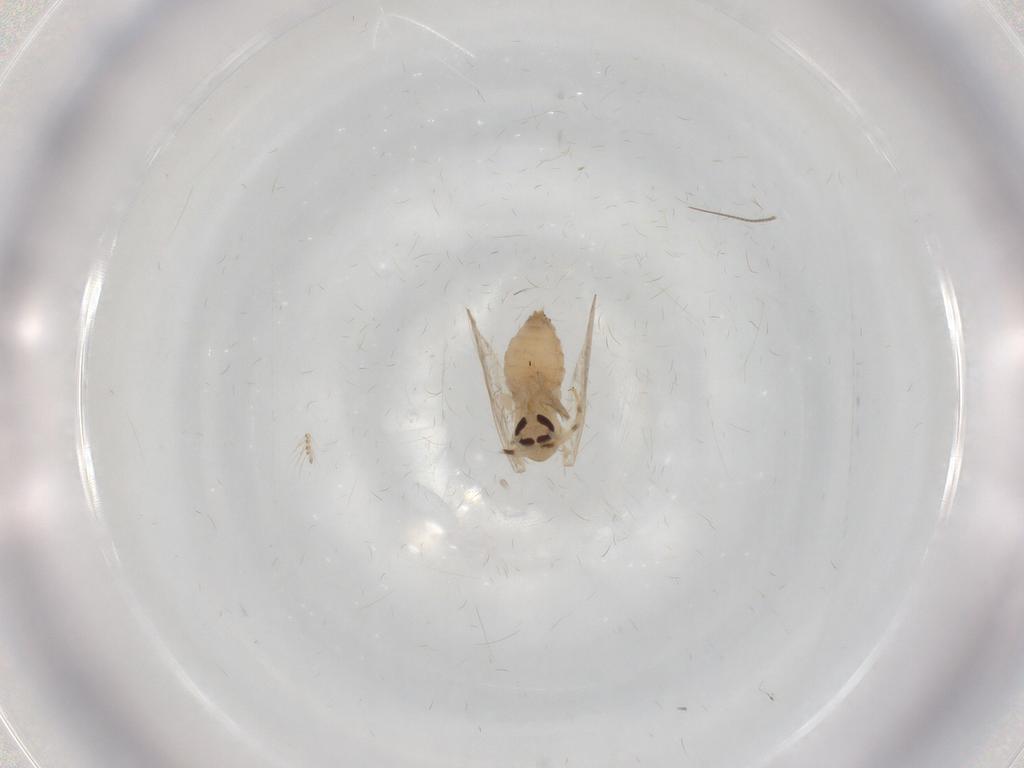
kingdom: Animalia
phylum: Arthropoda
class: Insecta
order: Diptera
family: Psychodidae
